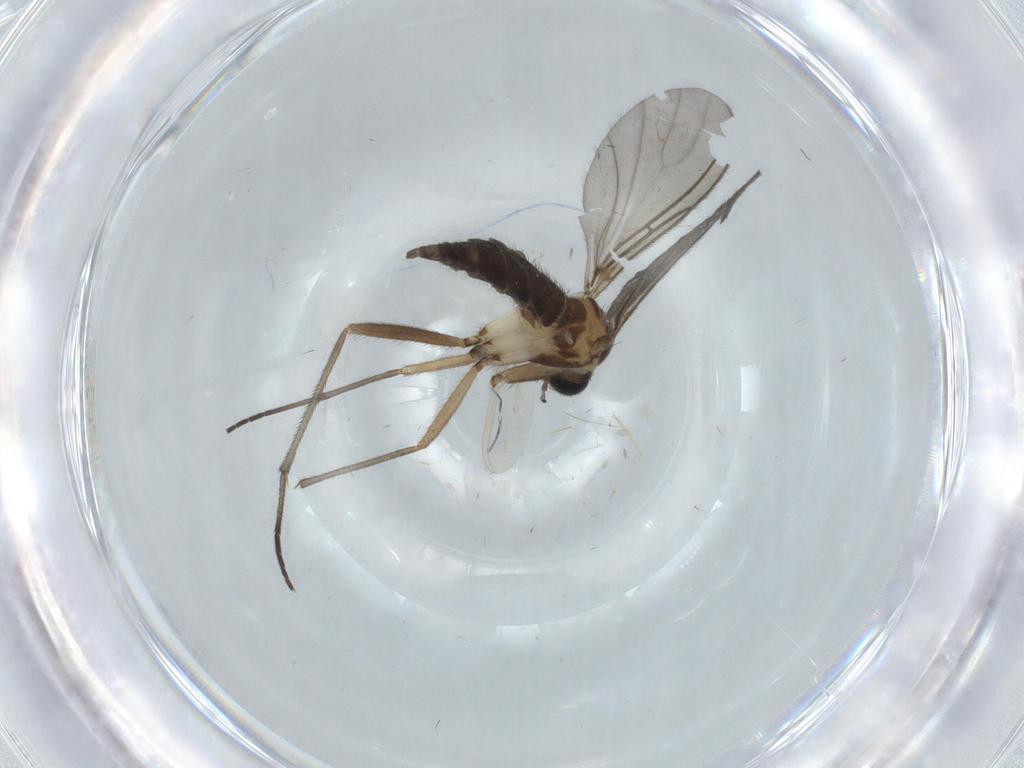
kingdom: Animalia
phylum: Arthropoda
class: Insecta
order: Diptera
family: Sciaridae
